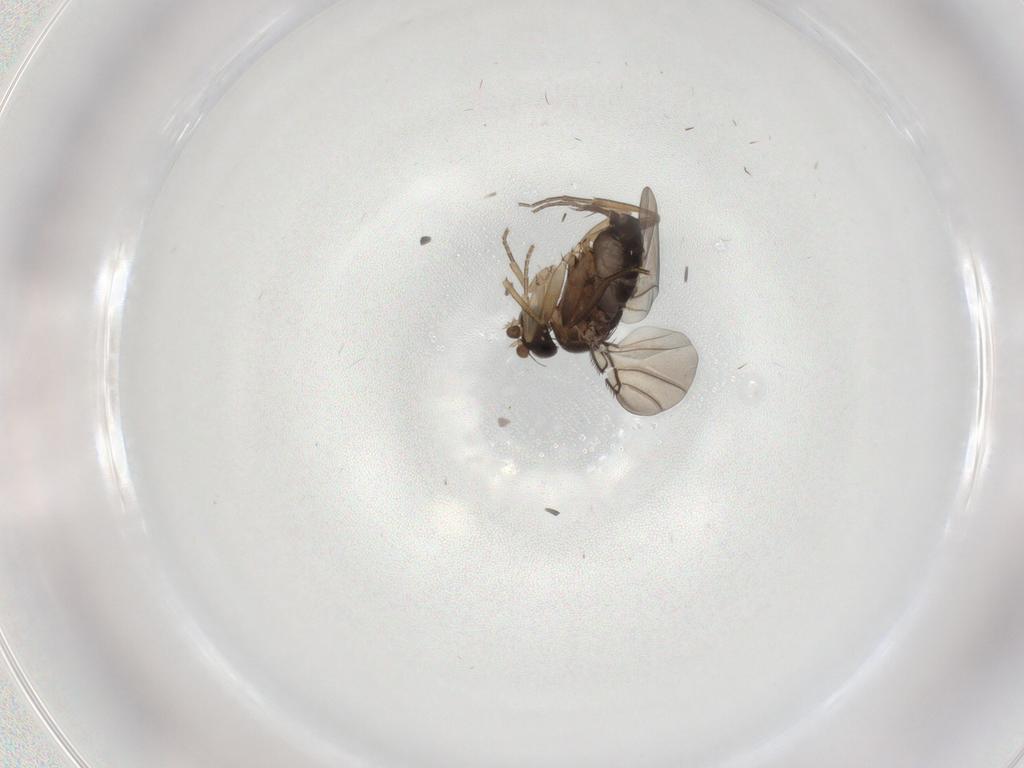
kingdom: Animalia
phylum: Arthropoda
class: Insecta
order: Diptera
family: Phoridae
